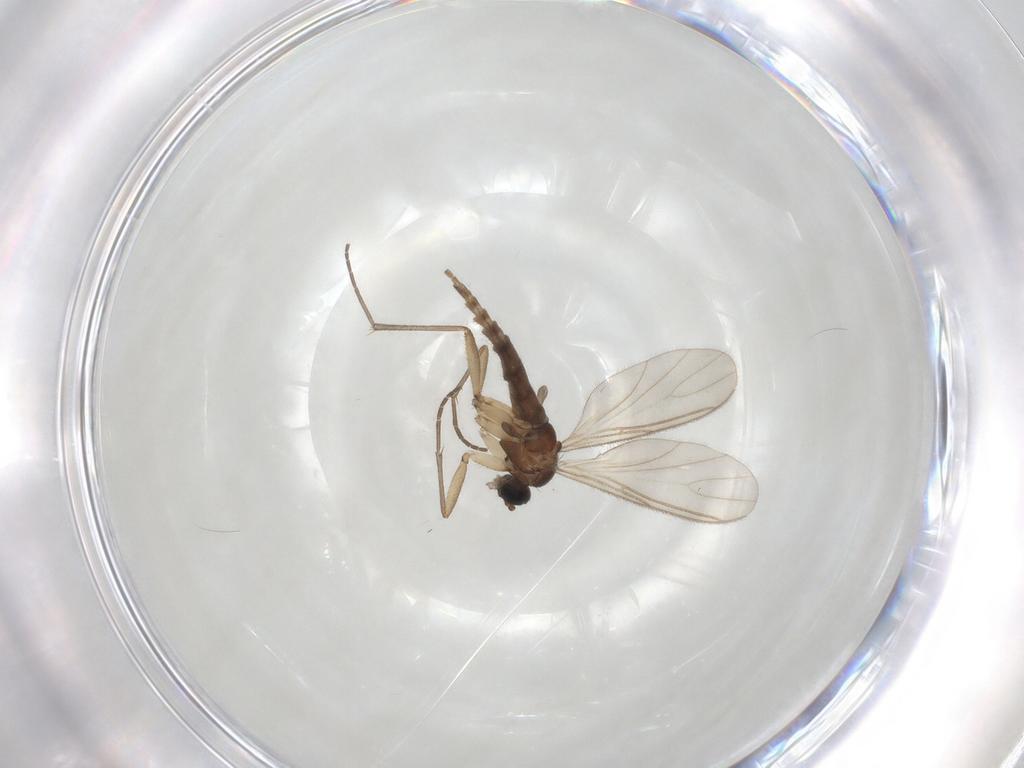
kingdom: Animalia
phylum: Arthropoda
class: Insecta
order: Diptera
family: Sciaridae
